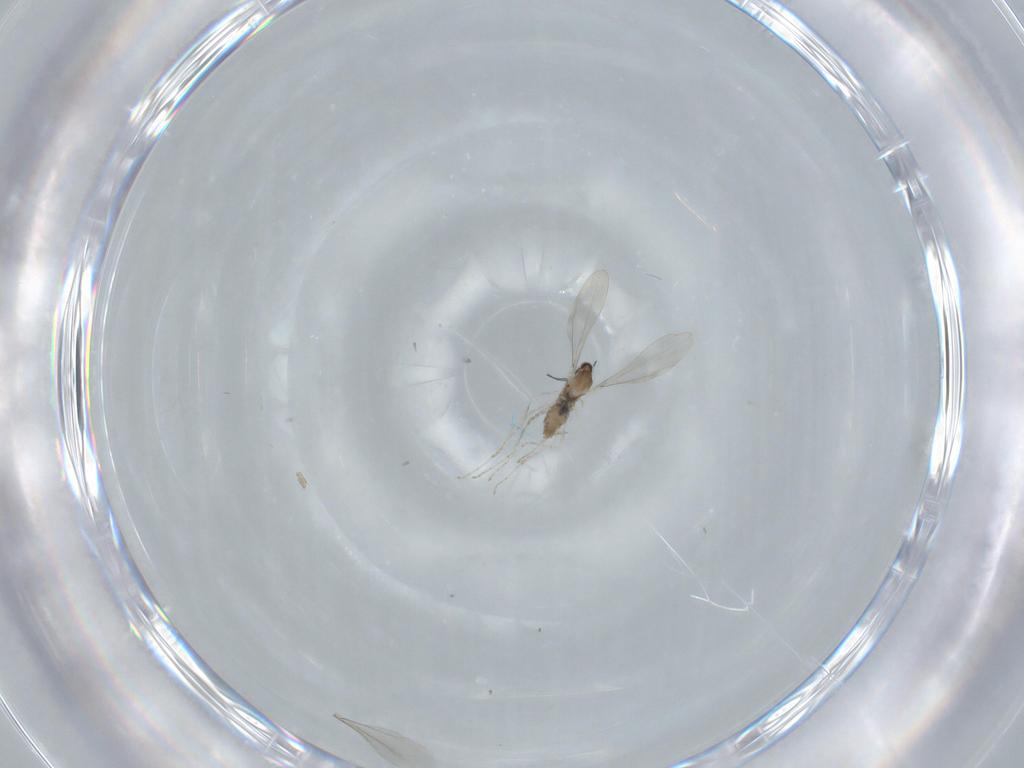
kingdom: Animalia
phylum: Arthropoda
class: Insecta
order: Diptera
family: Cecidomyiidae
